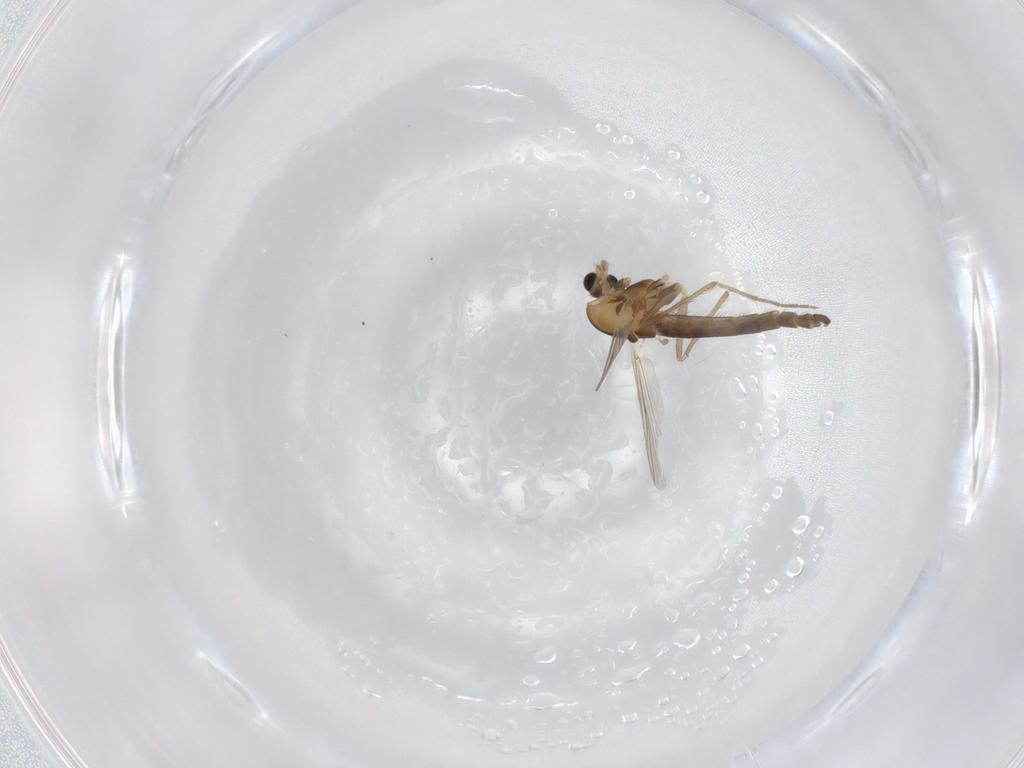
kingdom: Animalia
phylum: Arthropoda
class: Insecta
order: Diptera
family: Chironomidae
